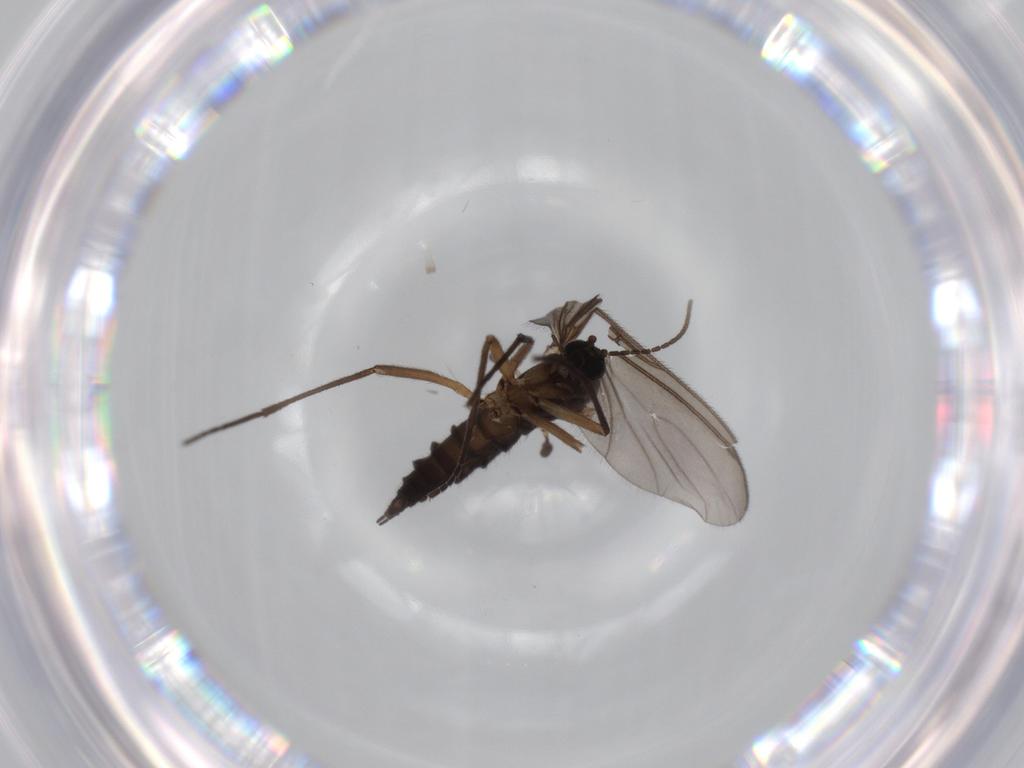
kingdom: Animalia
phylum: Arthropoda
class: Insecta
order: Diptera
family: Sciaridae
